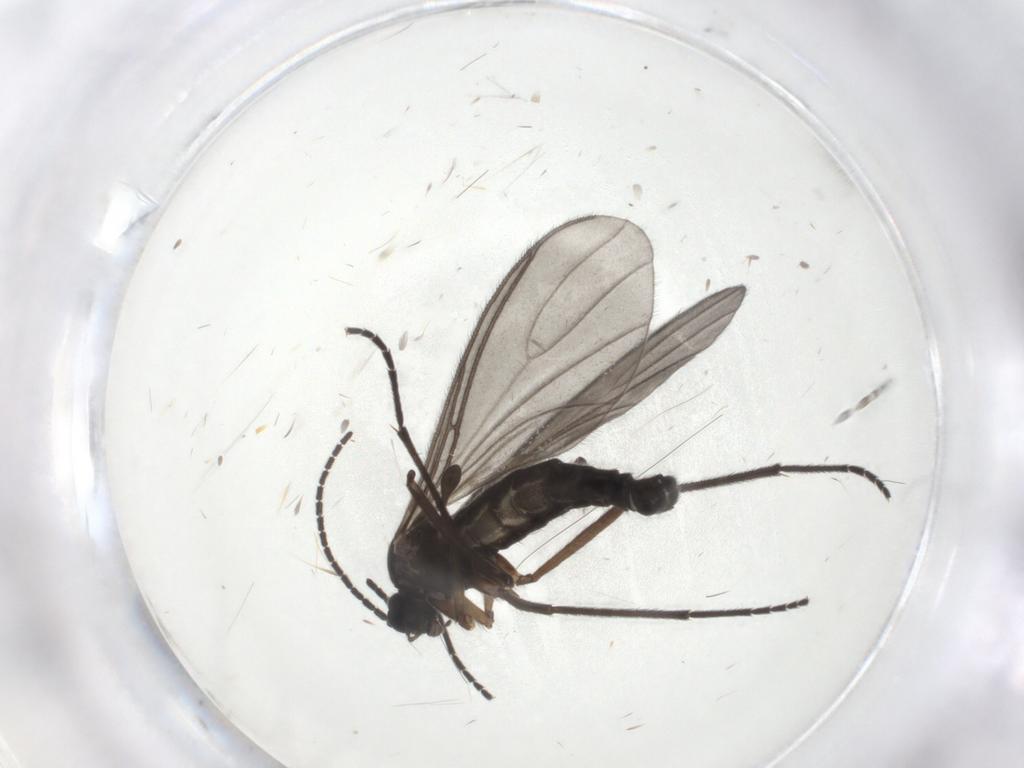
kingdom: Animalia
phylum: Arthropoda
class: Insecta
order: Diptera
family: Sciaridae
